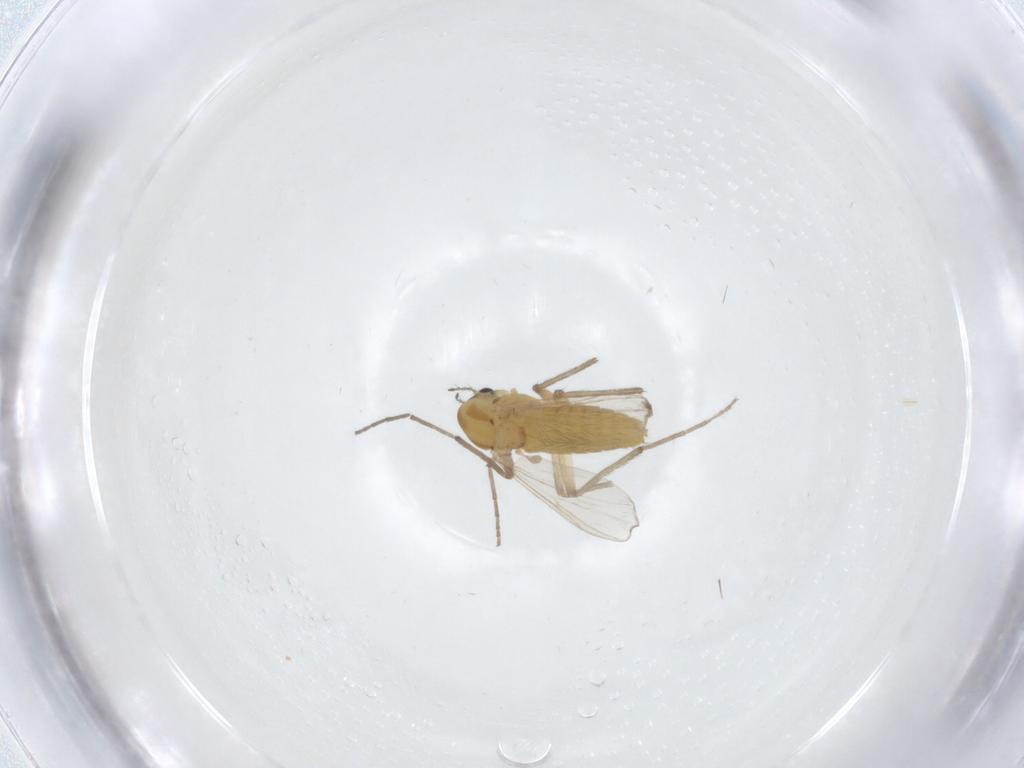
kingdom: Animalia
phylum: Arthropoda
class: Insecta
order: Diptera
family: Chironomidae
